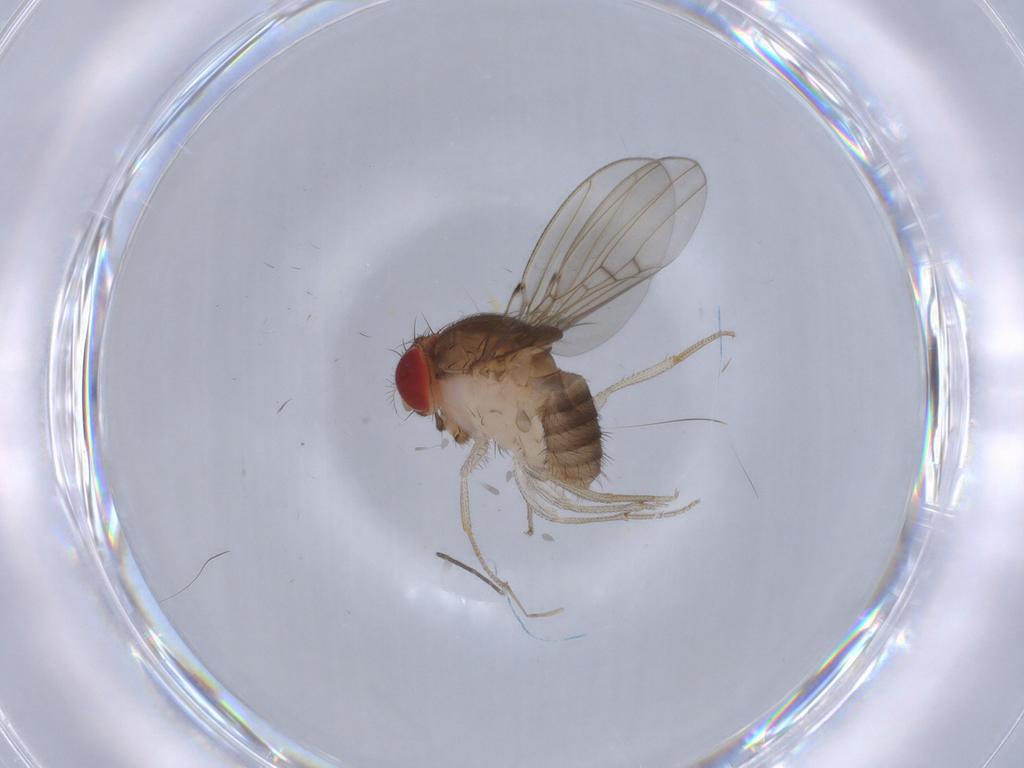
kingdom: Animalia
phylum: Arthropoda
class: Insecta
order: Diptera
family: Drosophilidae
